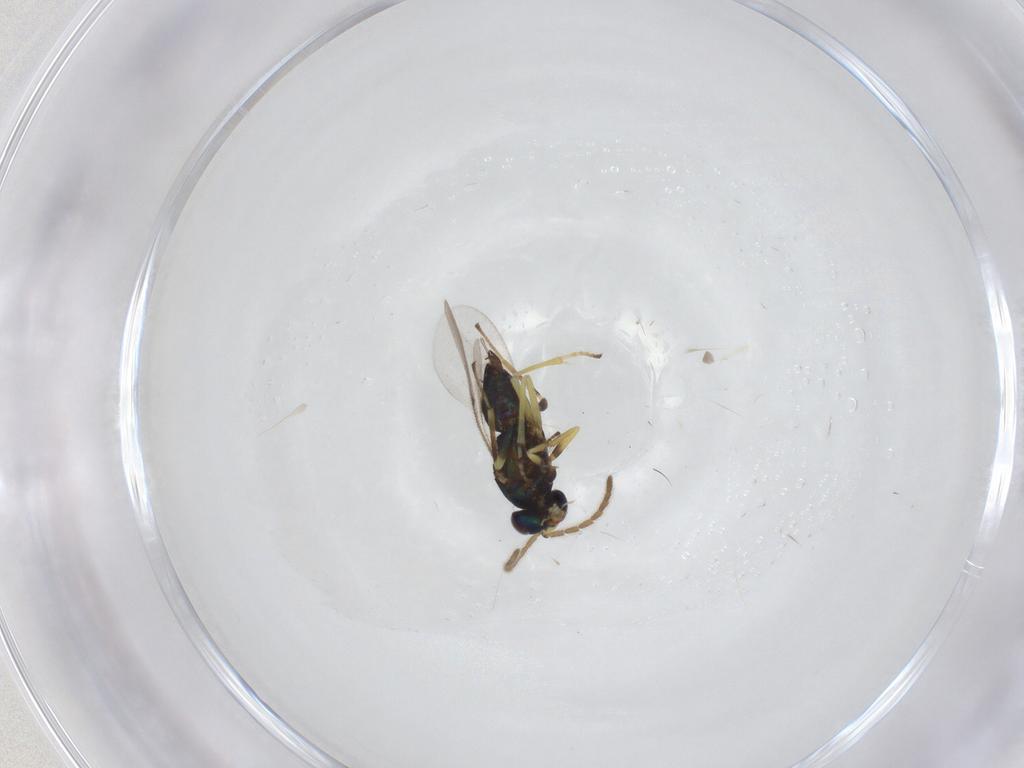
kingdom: Animalia
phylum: Arthropoda
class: Insecta
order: Hymenoptera
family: Encyrtidae
